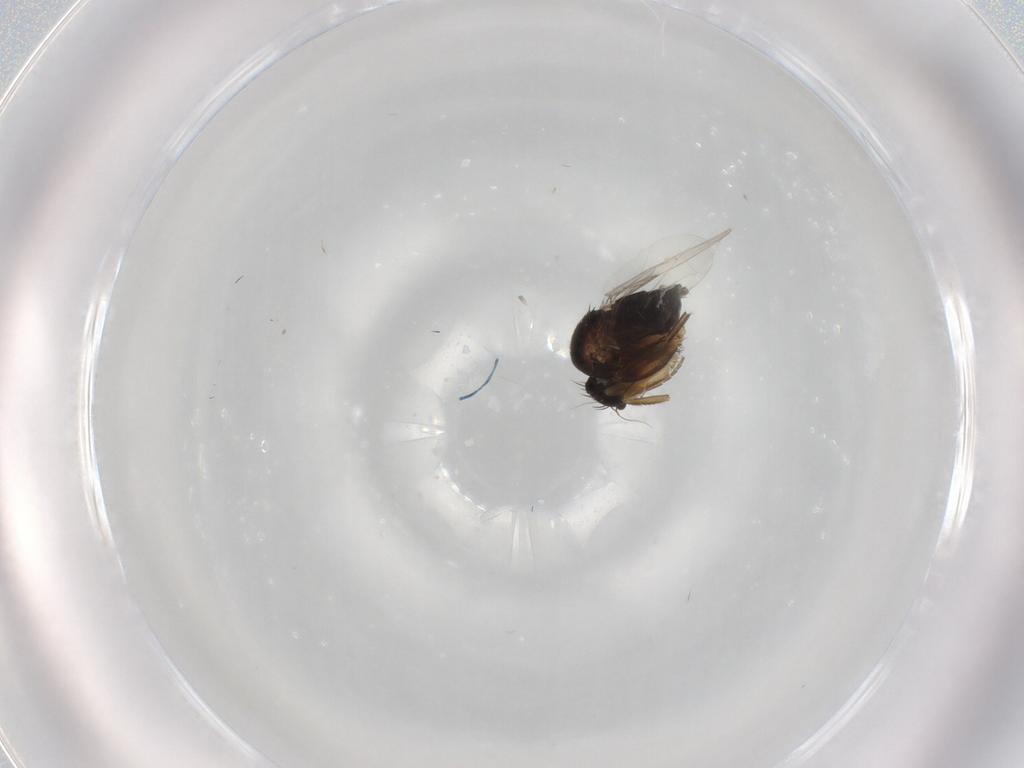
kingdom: Animalia
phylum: Arthropoda
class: Insecta
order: Diptera
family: Phoridae
